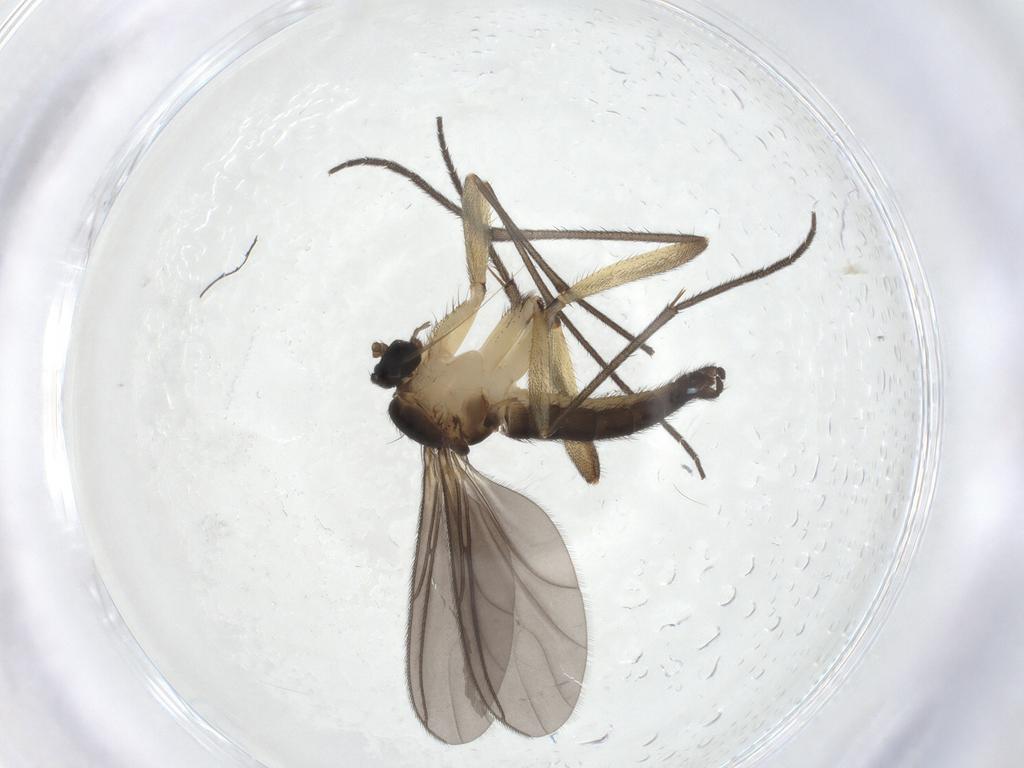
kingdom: Animalia
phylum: Arthropoda
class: Insecta
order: Diptera
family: Sciaridae
